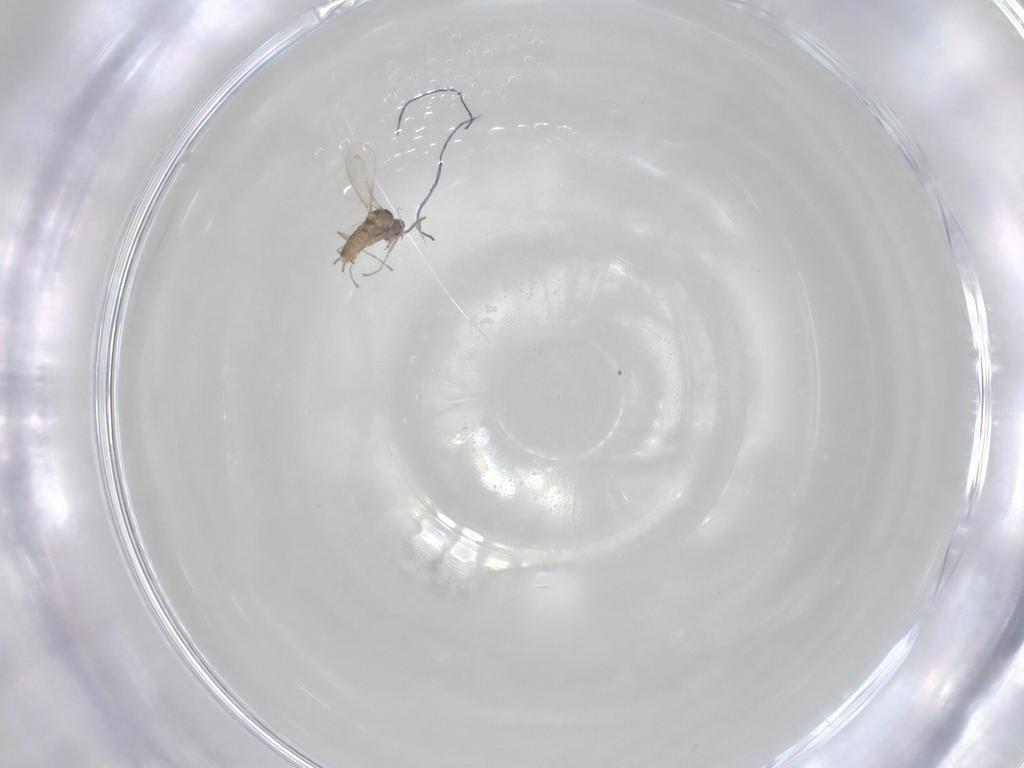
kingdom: Animalia
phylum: Arthropoda
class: Insecta
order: Diptera
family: Cecidomyiidae
